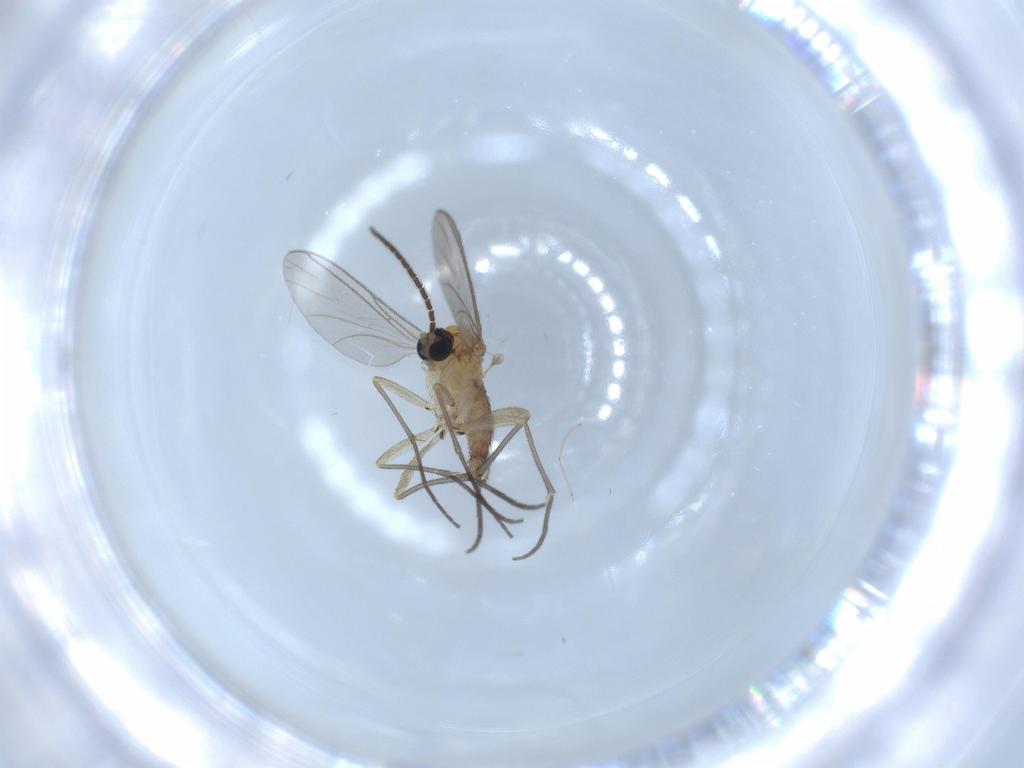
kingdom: Animalia
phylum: Arthropoda
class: Insecta
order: Diptera
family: Sciaridae
